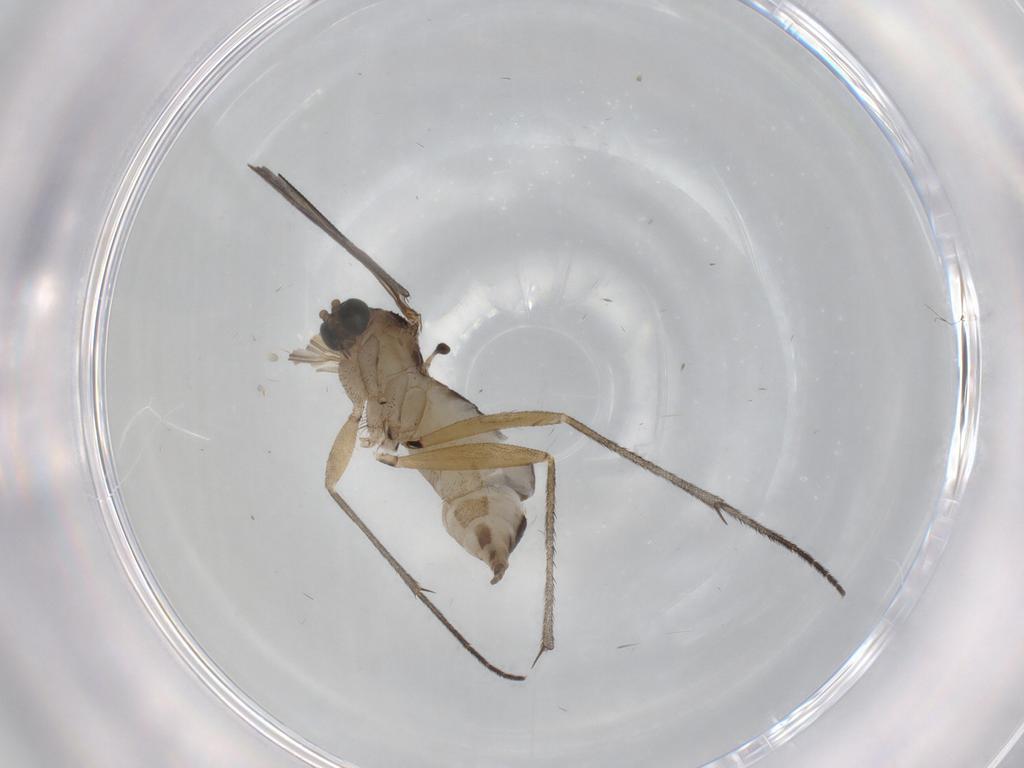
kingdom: Animalia
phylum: Arthropoda
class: Insecta
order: Diptera
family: Sciaridae
